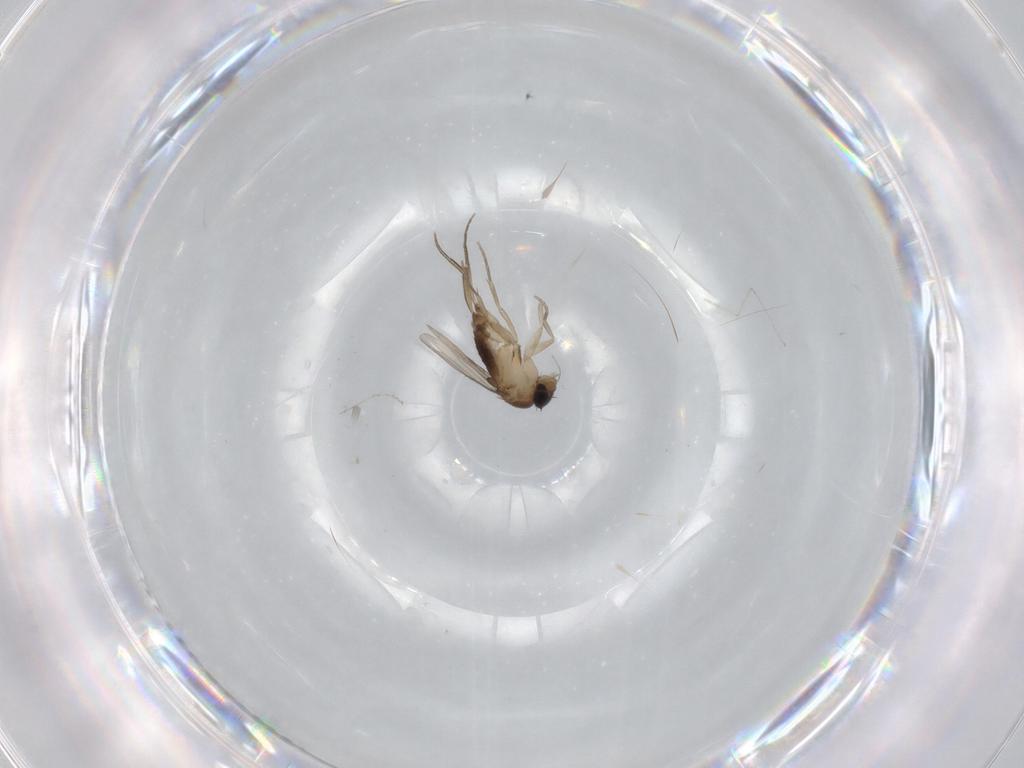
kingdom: Animalia
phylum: Arthropoda
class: Insecta
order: Diptera
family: Phoridae
